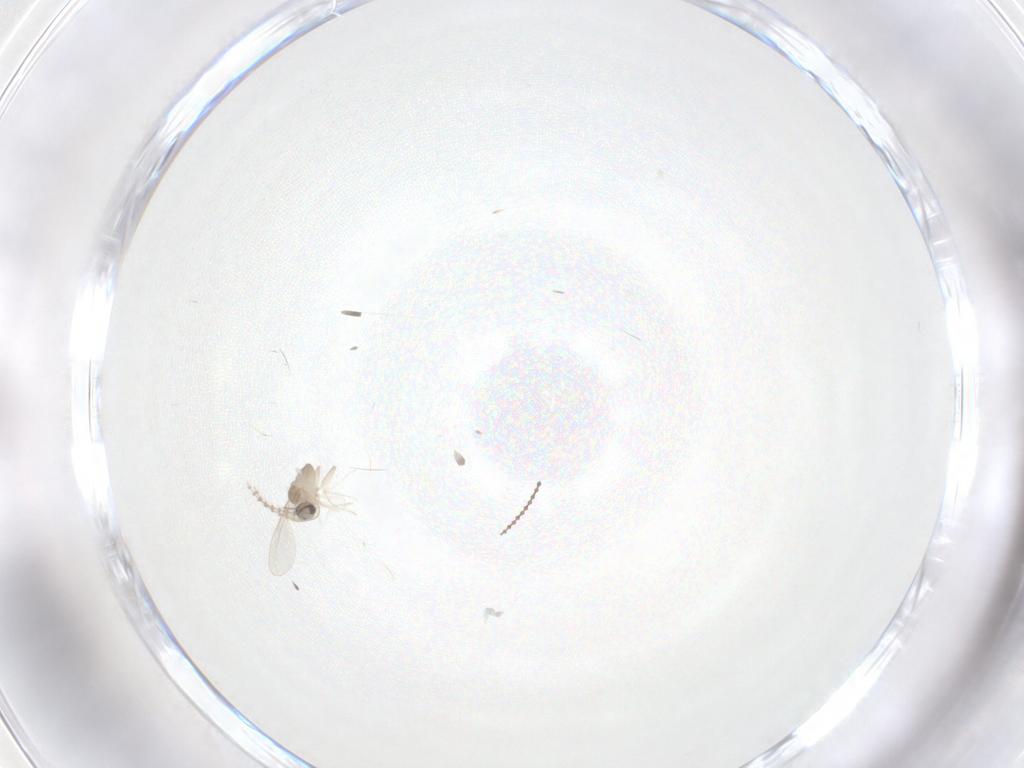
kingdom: Animalia
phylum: Arthropoda
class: Insecta
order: Diptera
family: Cecidomyiidae
